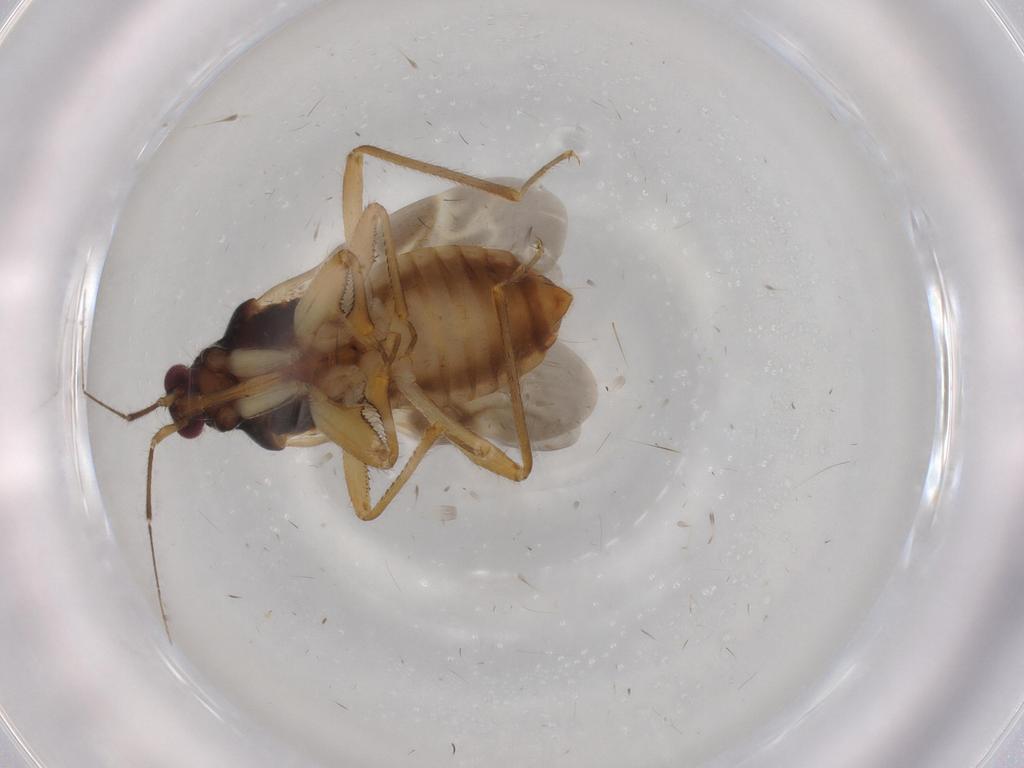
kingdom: Animalia
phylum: Arthropoda
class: Insecta
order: Hemiptera
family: Nabidae
